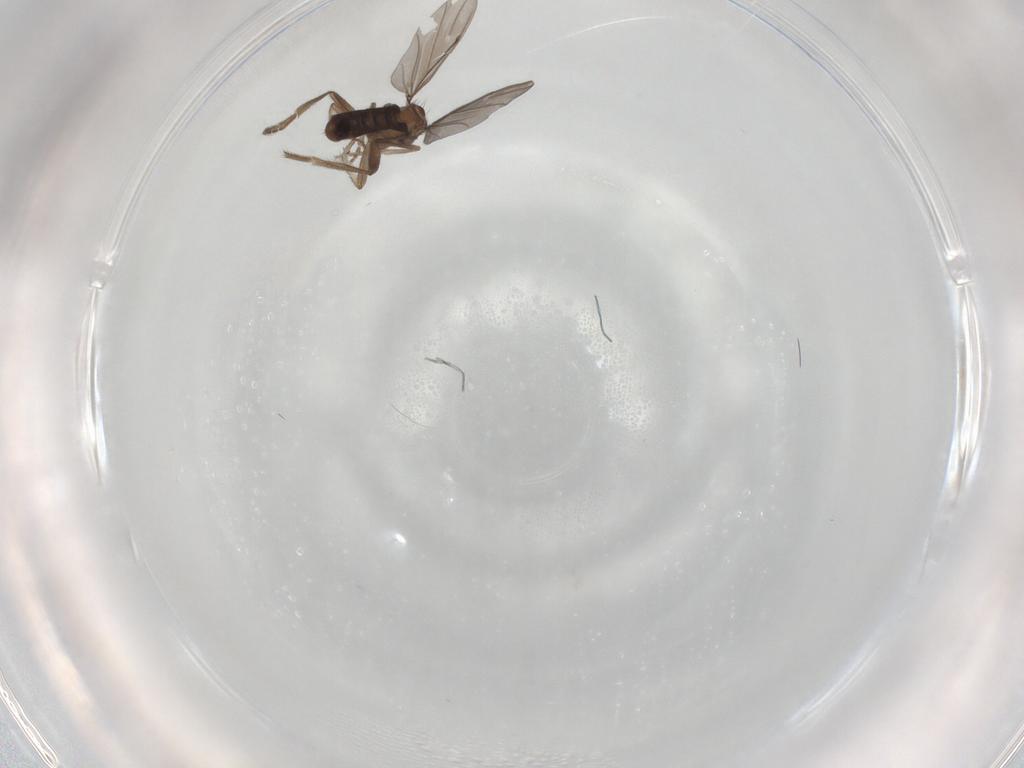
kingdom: Animalia
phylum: Arthropoda
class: Insecta
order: Diptera
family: Phoridae
